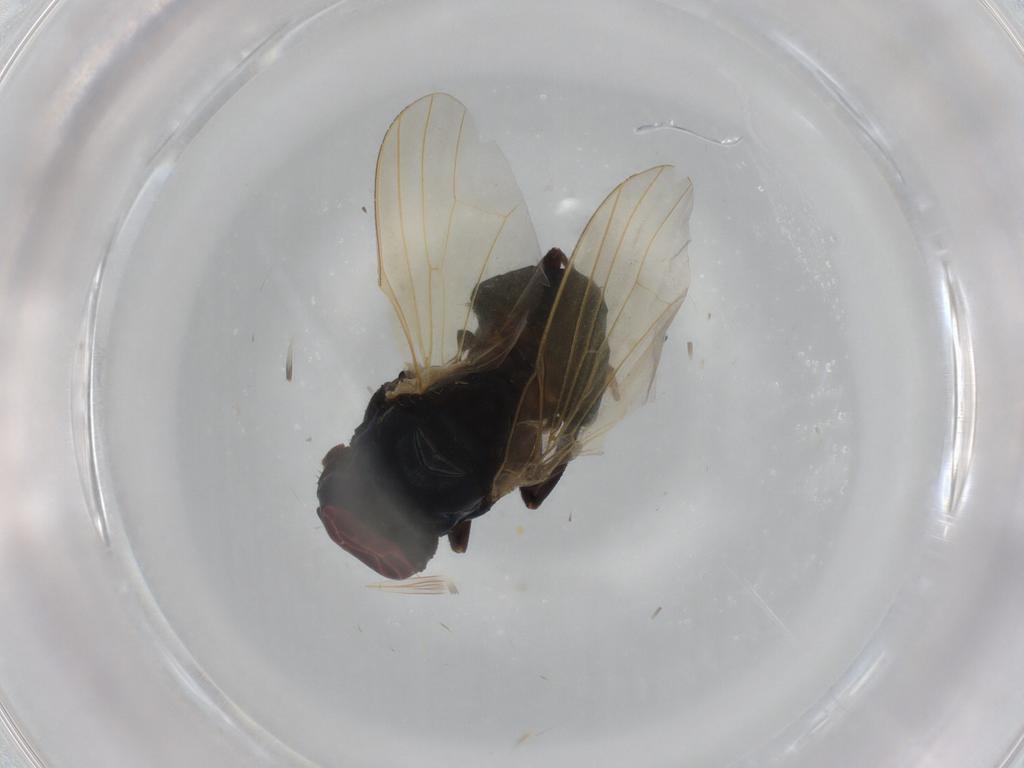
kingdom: Animalia
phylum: Arthropoda
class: Insecta
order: Diptera
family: Lonchaeidae
